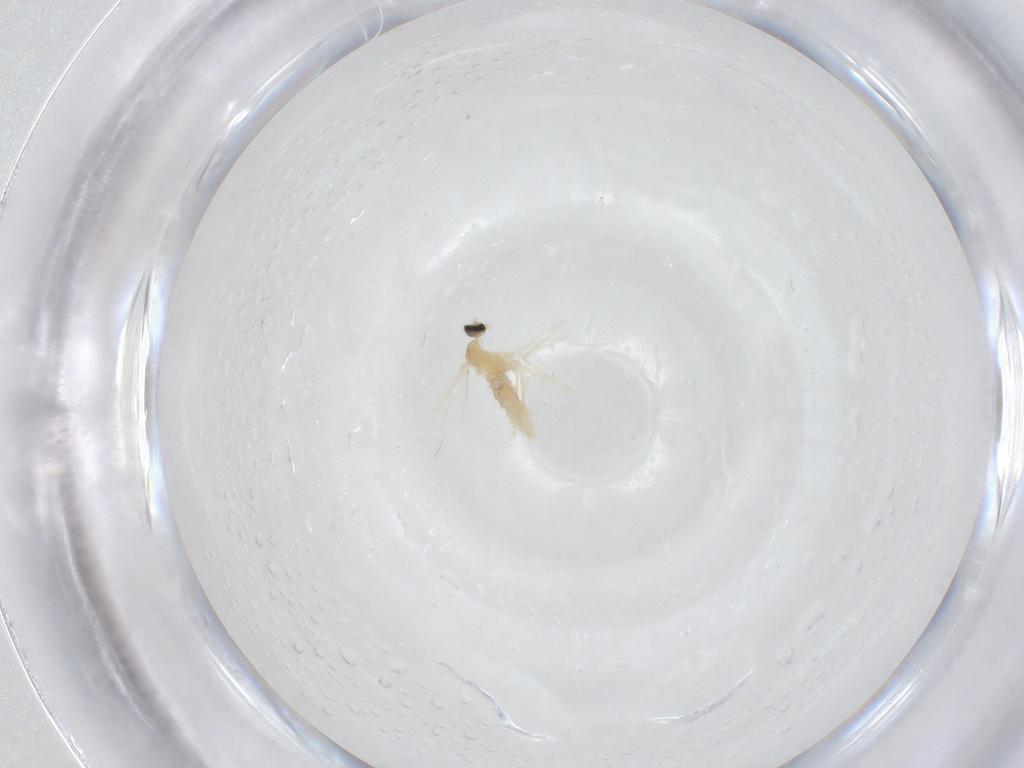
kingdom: Animalia
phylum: Arthropoda
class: Insecta
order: Diptera
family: Cecidomyiidae
